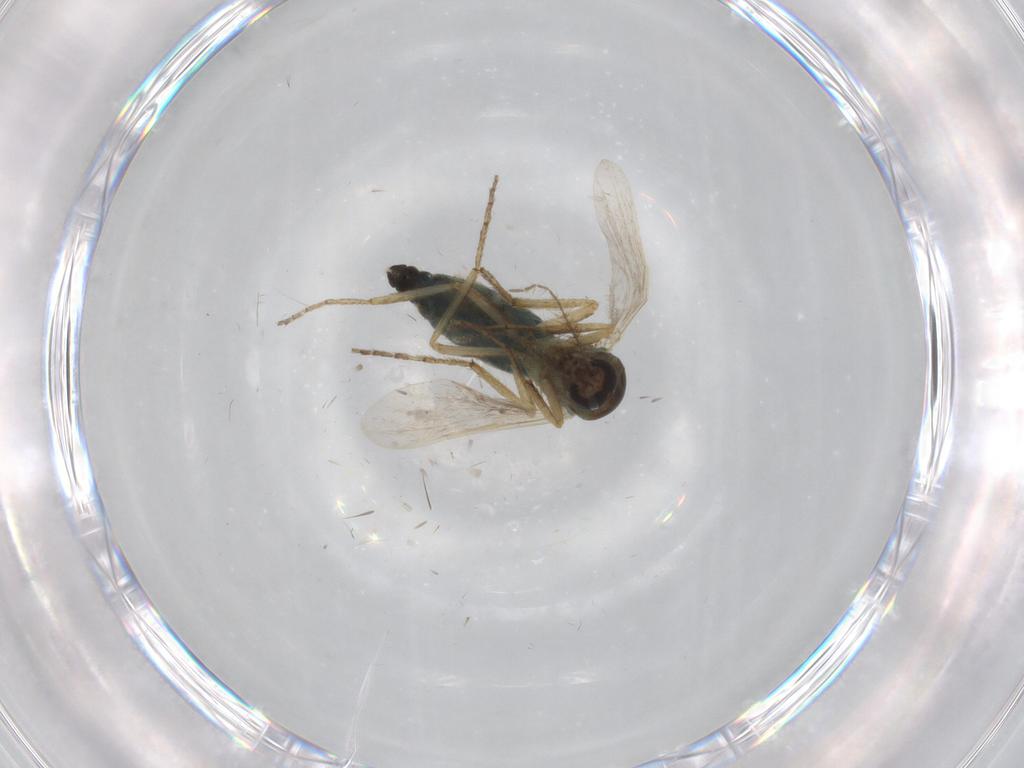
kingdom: Animalia
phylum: Arthropoda
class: Insecta
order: Diptera
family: Ceratopogonidae
